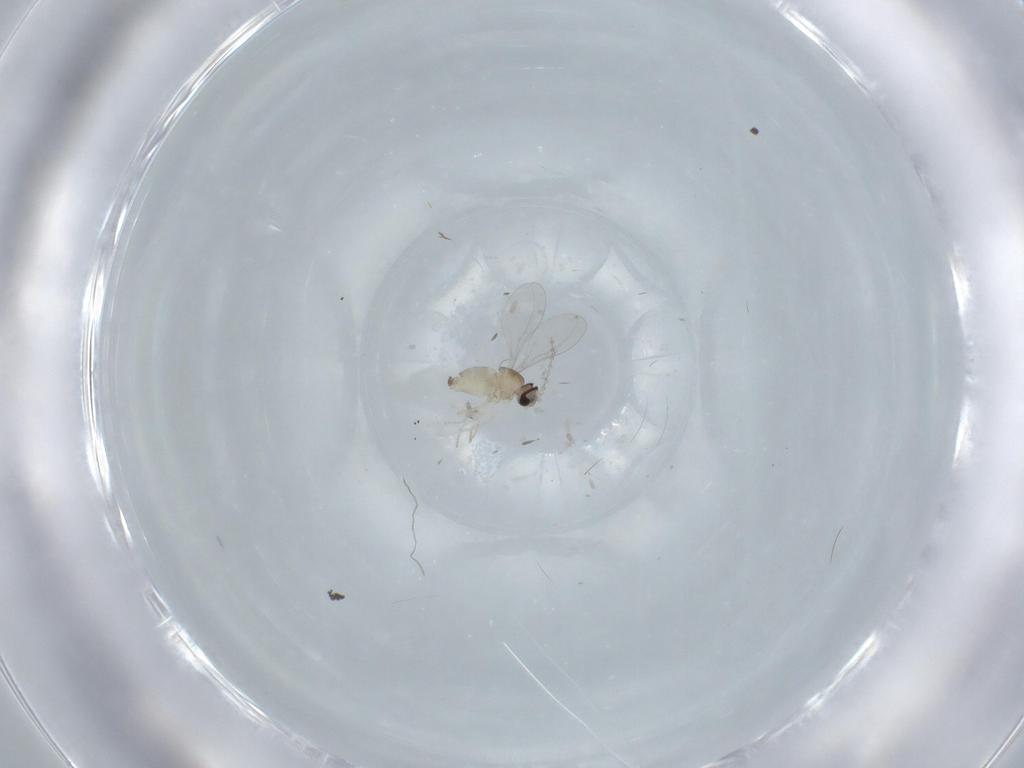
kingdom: Animalia
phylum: Arthropoda
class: Insecta
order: Diptera
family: Cecidomyiidae
